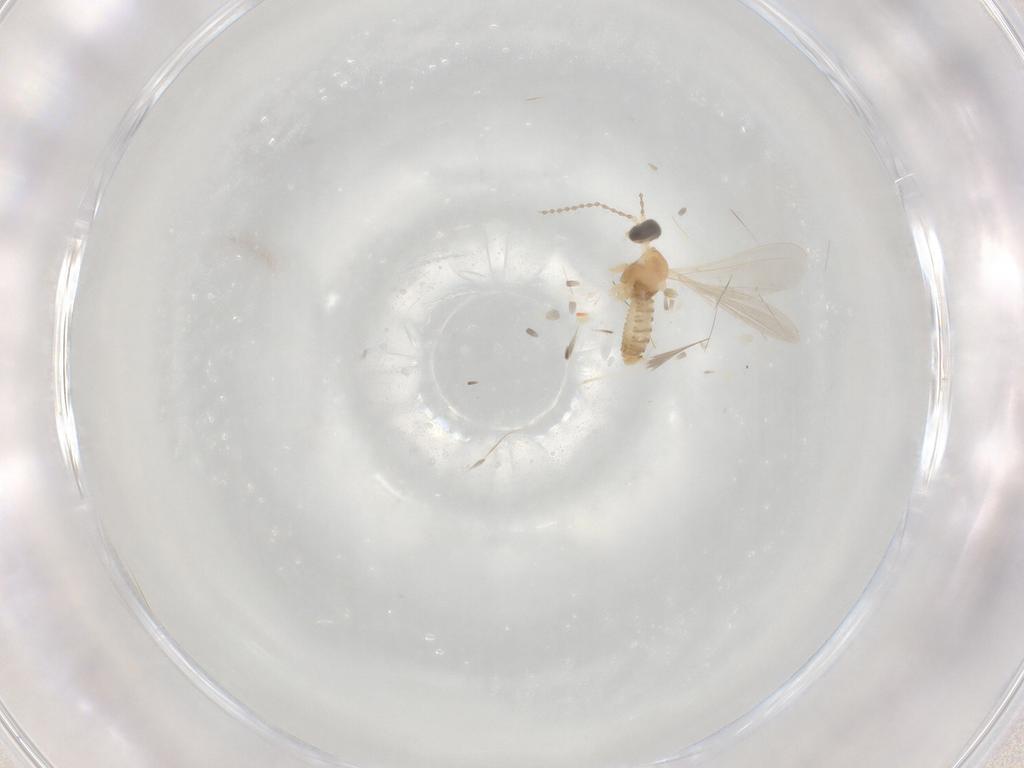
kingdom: Animalia
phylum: Arthropoda
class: Insecta
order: Diptera
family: Cecidomyiidae
